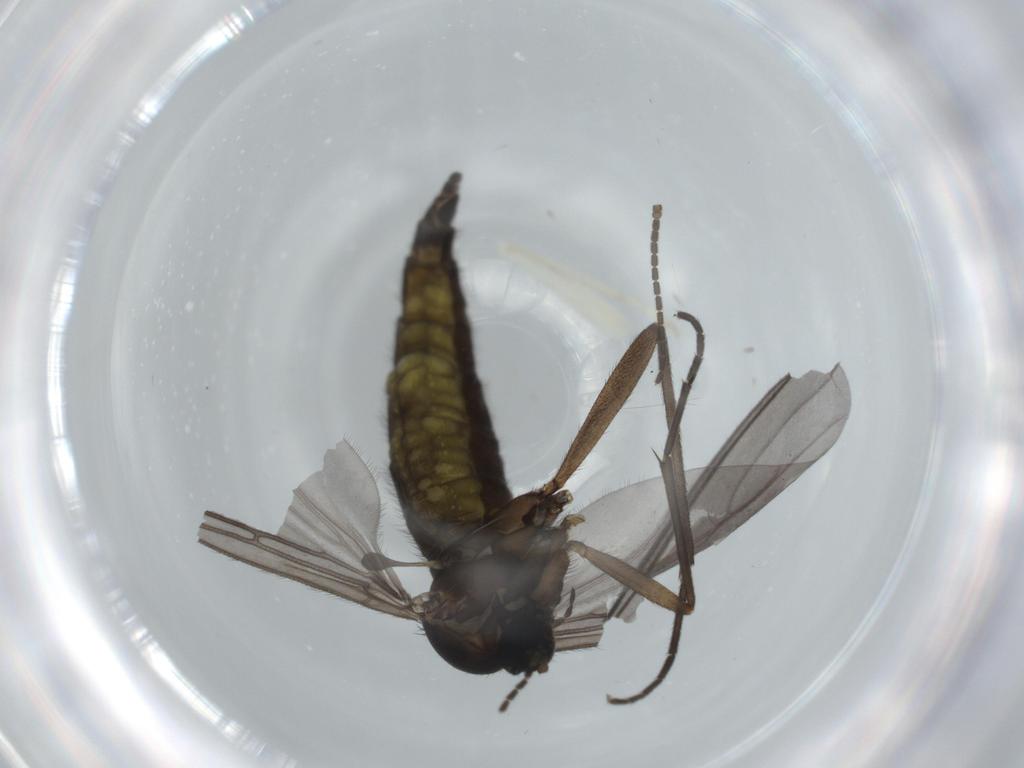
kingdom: Animalia
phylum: Arthropoda
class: Insecta
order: Diptera
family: Sciaridae
